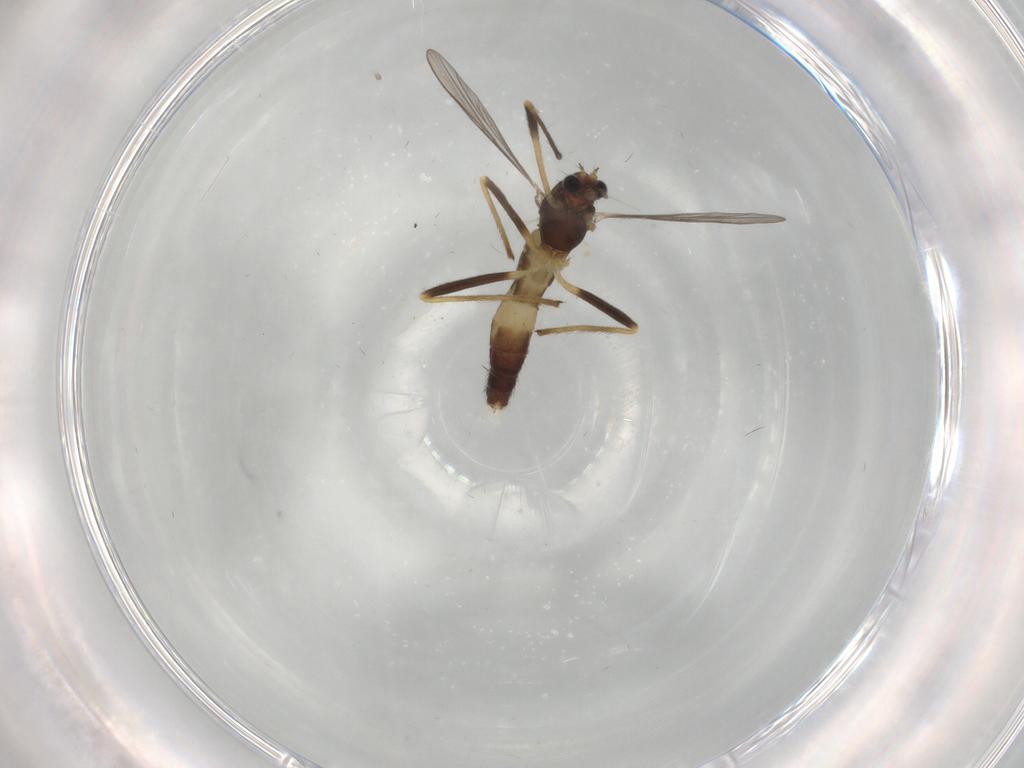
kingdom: Animalia
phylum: Arthropoda
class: Insecta
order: Diptera
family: Chironomidae
